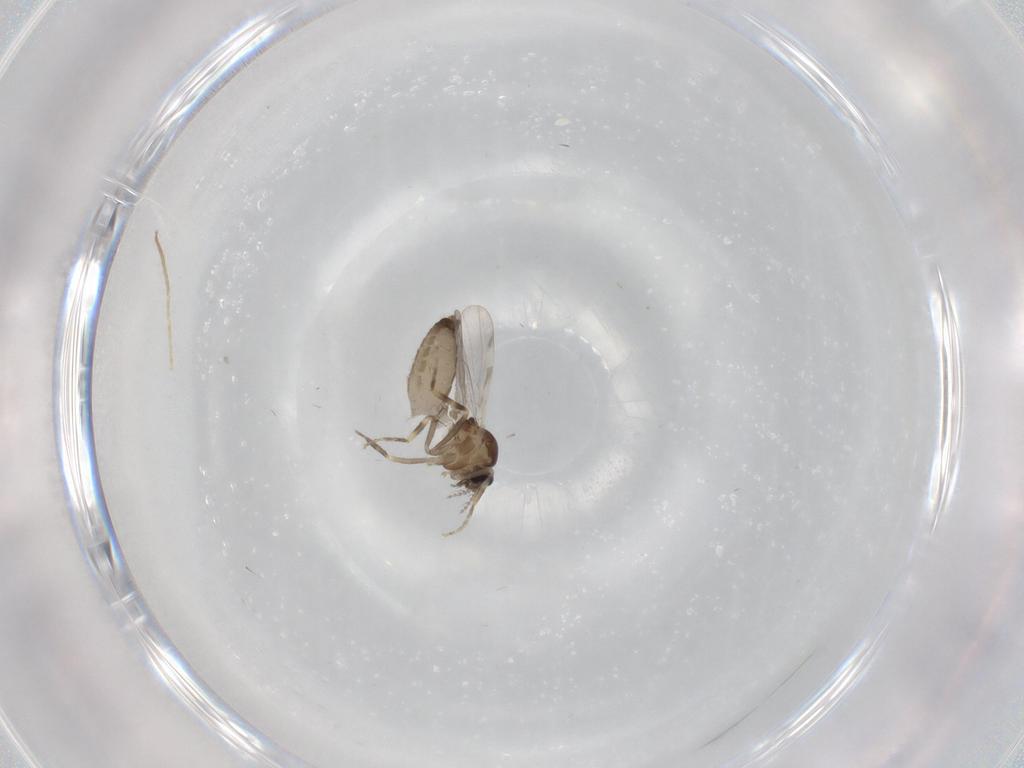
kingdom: Animalia
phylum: Arthropoda
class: Insecta
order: Diptera
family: Ceratopogonidae
